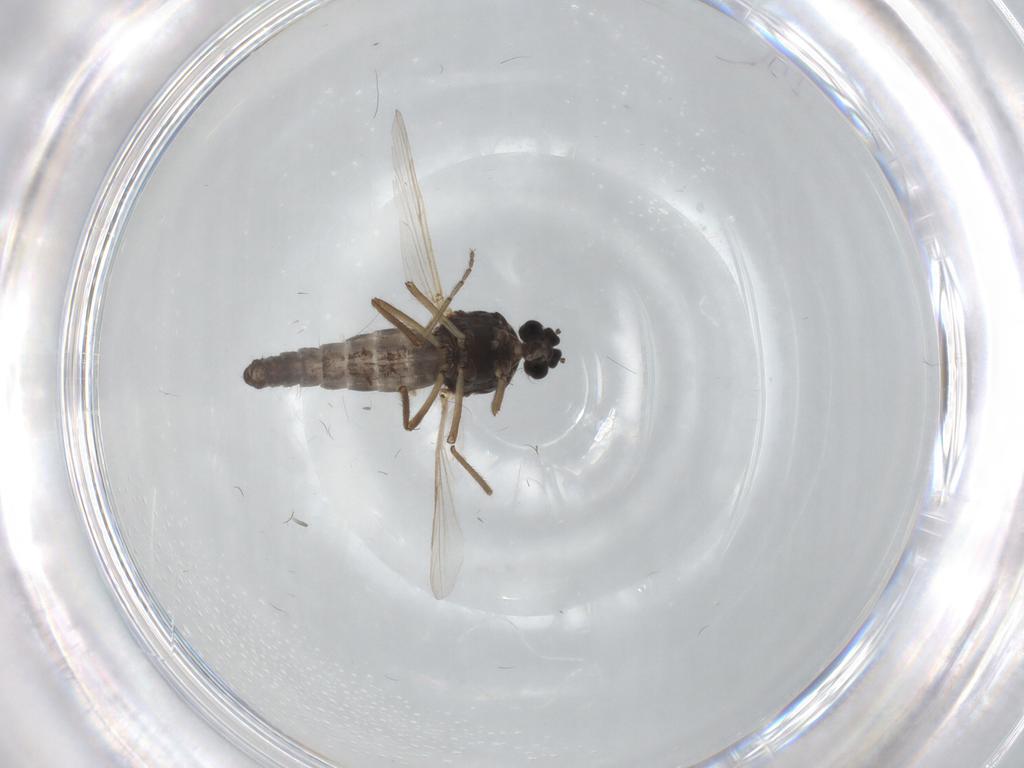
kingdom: Animalia
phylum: Arthropoda
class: Insecta
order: Diptera
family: Ceratopogonidae
